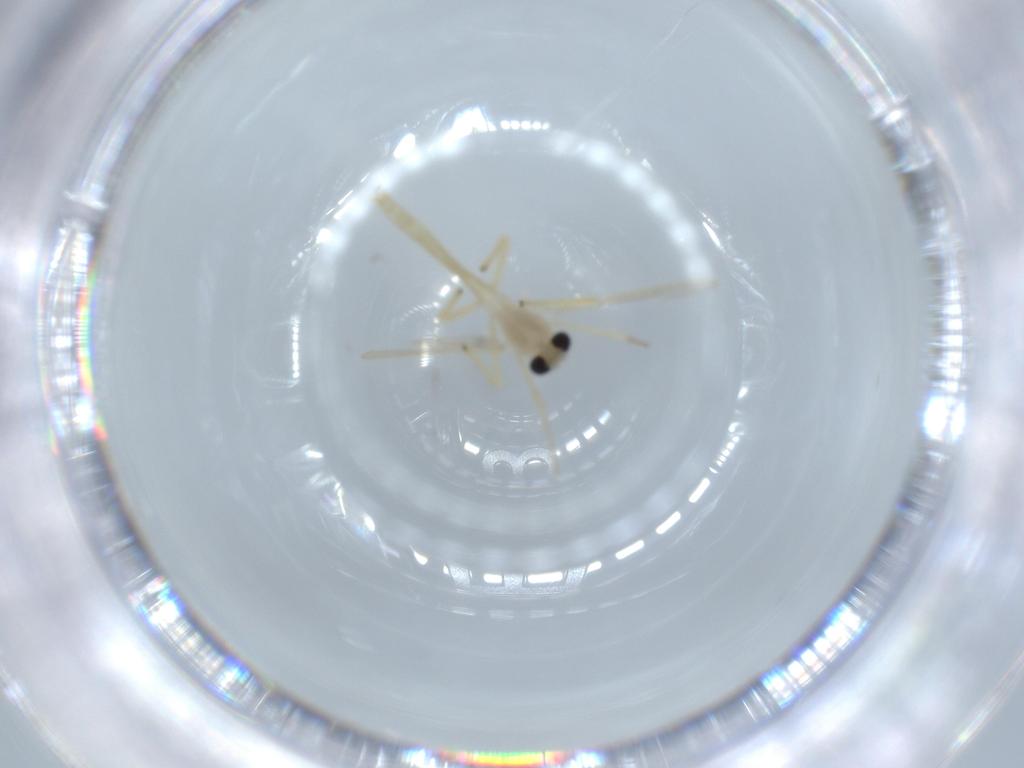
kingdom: Animalia
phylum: Arthropoda
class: Insecta
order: Diptera
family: Chironomidae
